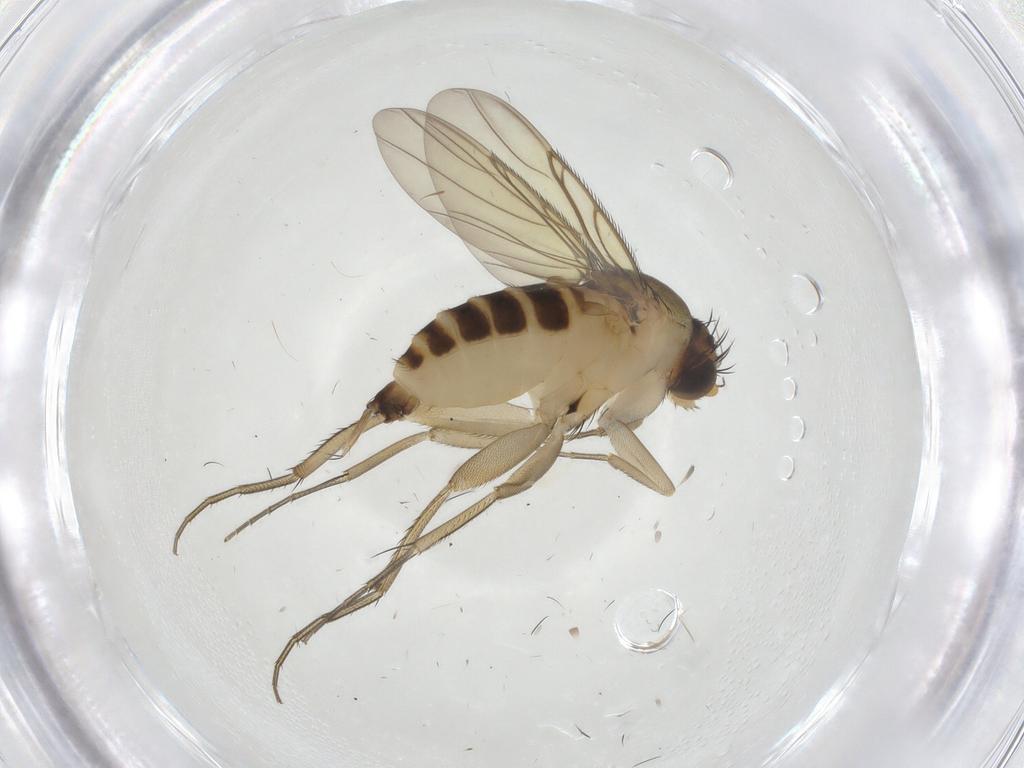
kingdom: Animalia
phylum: Arthropoda
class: Insecta
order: Diptera
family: Phoridae
